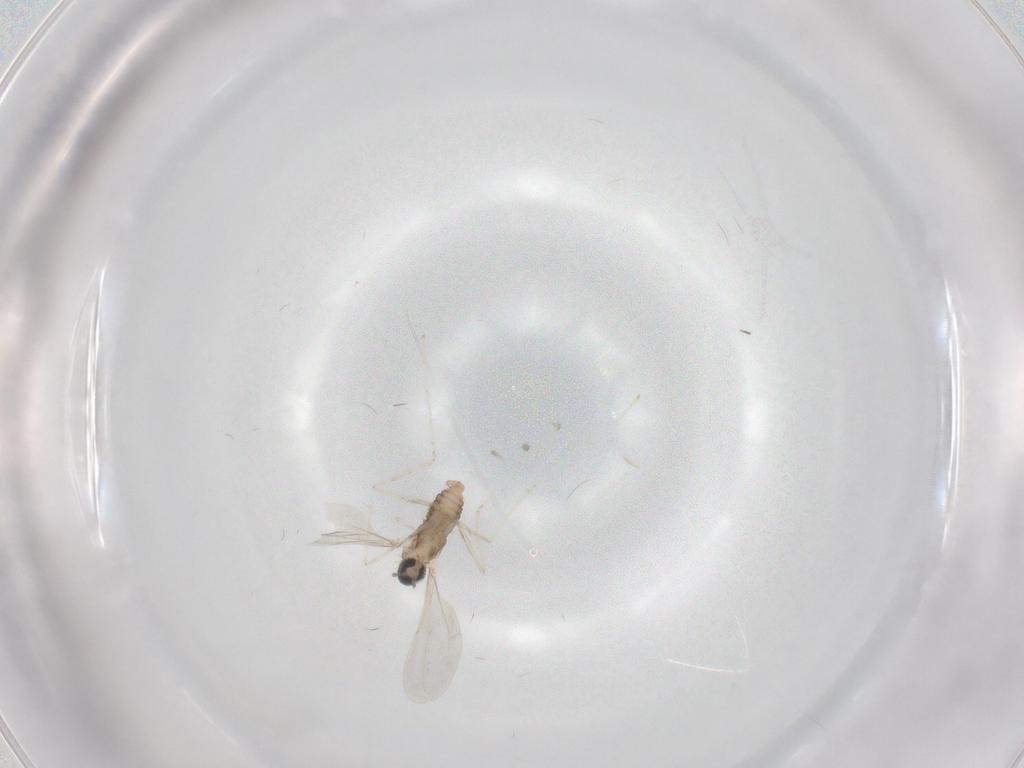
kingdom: Animalia
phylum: Arthropoda
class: Insecta
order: Diptera
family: Cecidomyiidae
